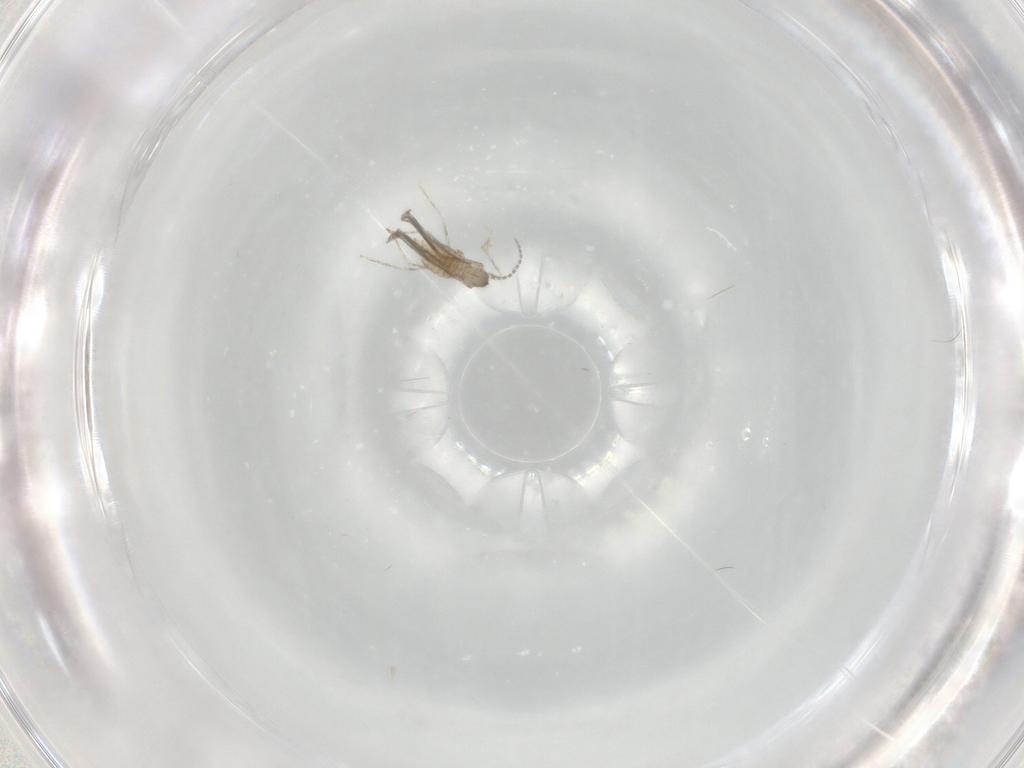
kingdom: Animalia
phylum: Arthropoda
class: Insecta
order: Diptera
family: Cecidomyiidae
